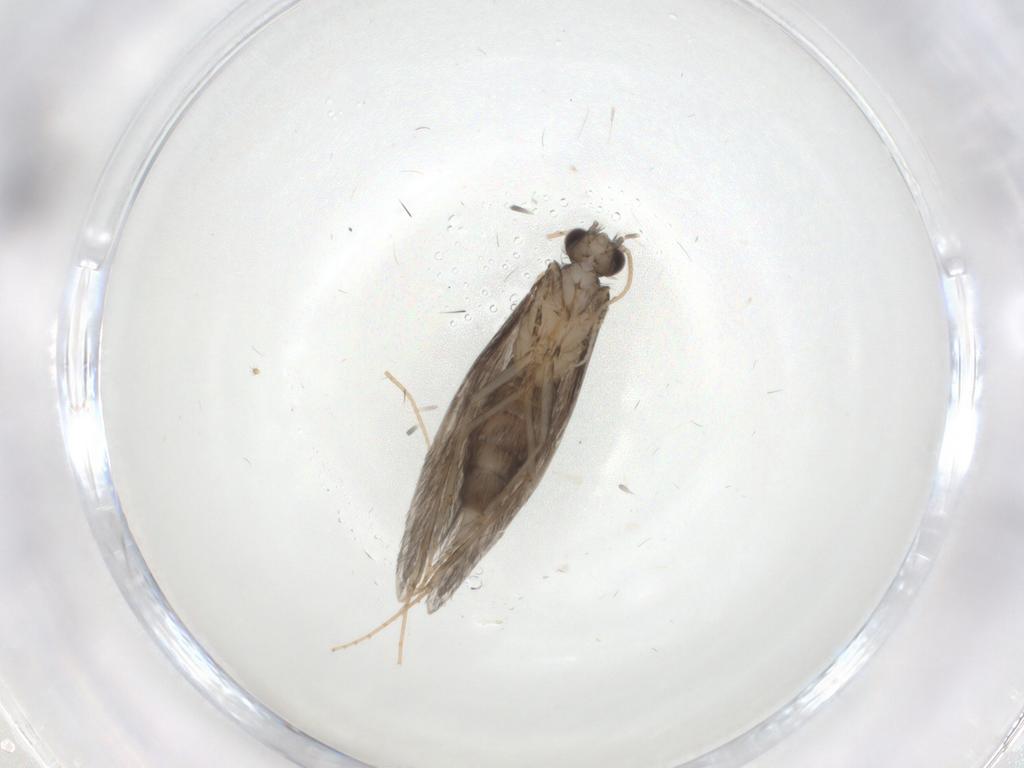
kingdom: Animalia
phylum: Arthropoda
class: Insecta
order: Trichoptera
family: Hydroptilidae
